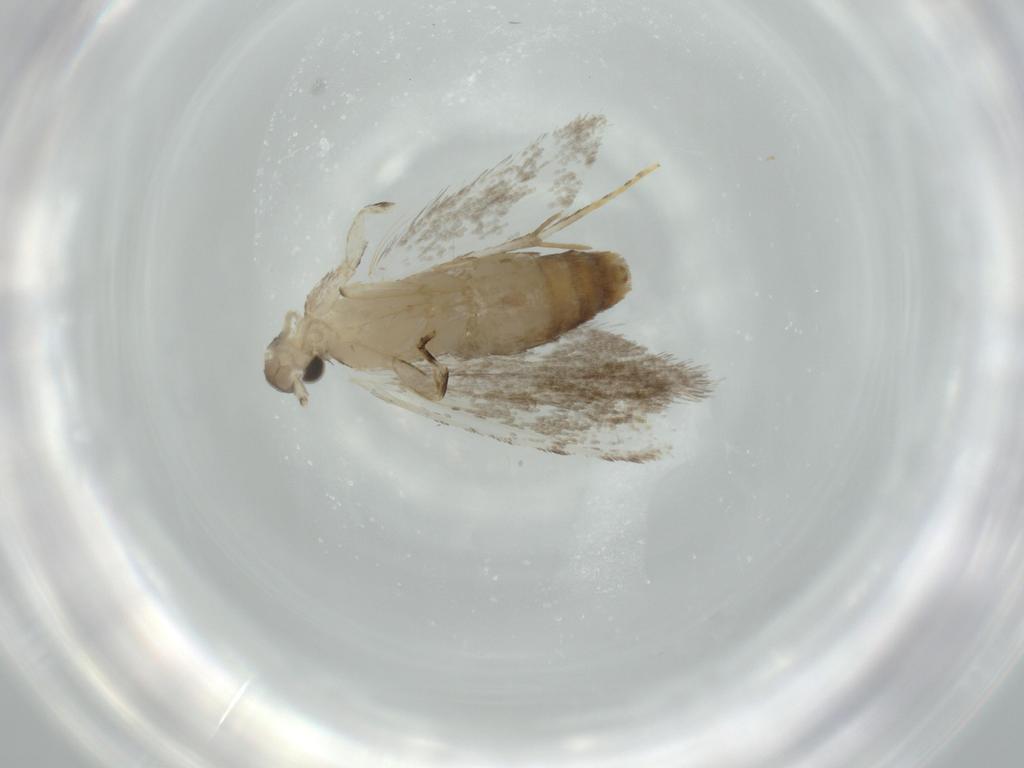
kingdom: Animalia
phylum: Arthropoda
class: Insecta
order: Lepidoptera
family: Tineidae
